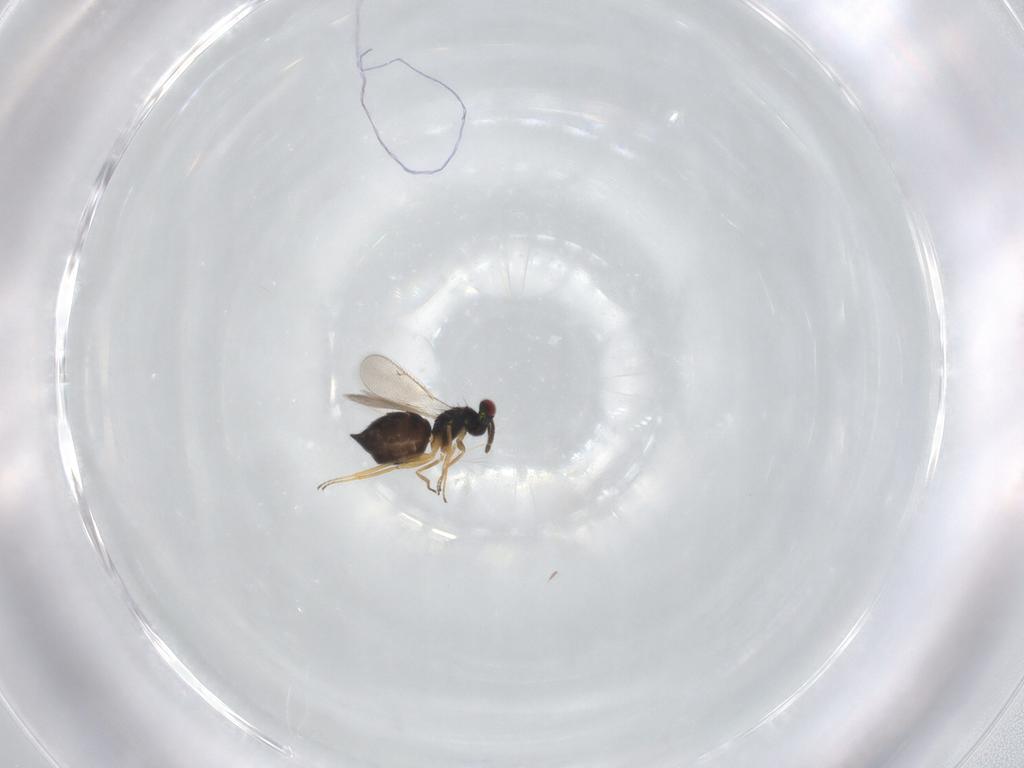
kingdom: Animalia
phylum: Arthropoda
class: Insecta
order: Hymenoptera
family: Tetracampidae
